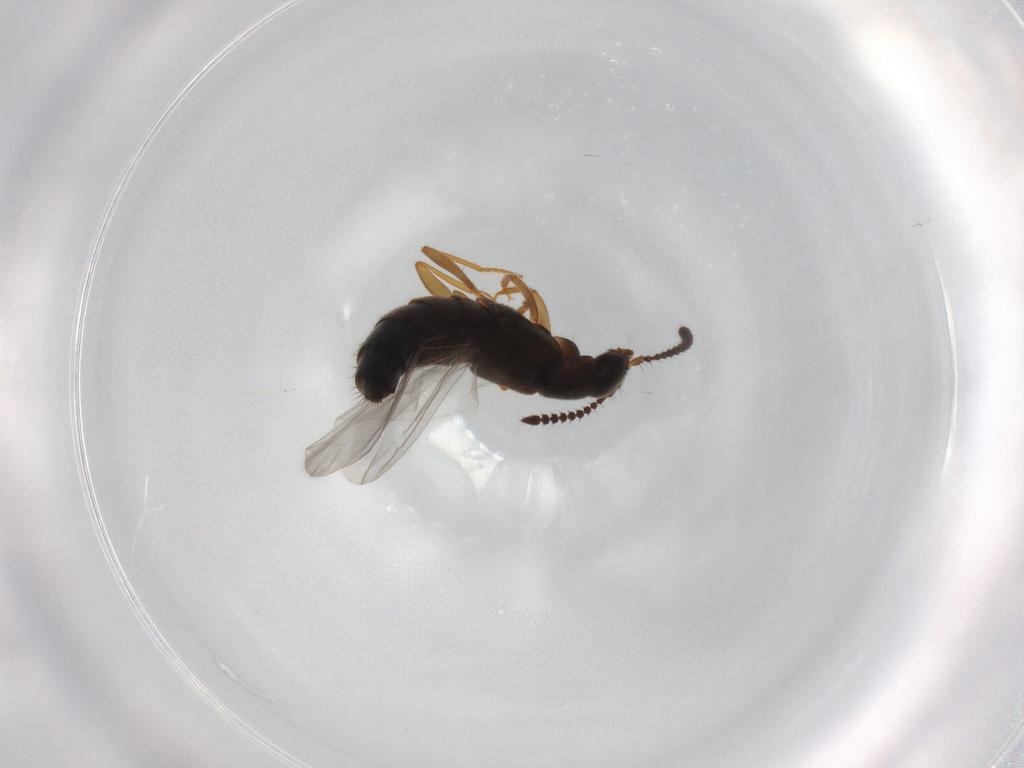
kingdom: Animalia
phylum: Arthropoda
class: Insecta
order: Coleoptera
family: Staphylinidae
